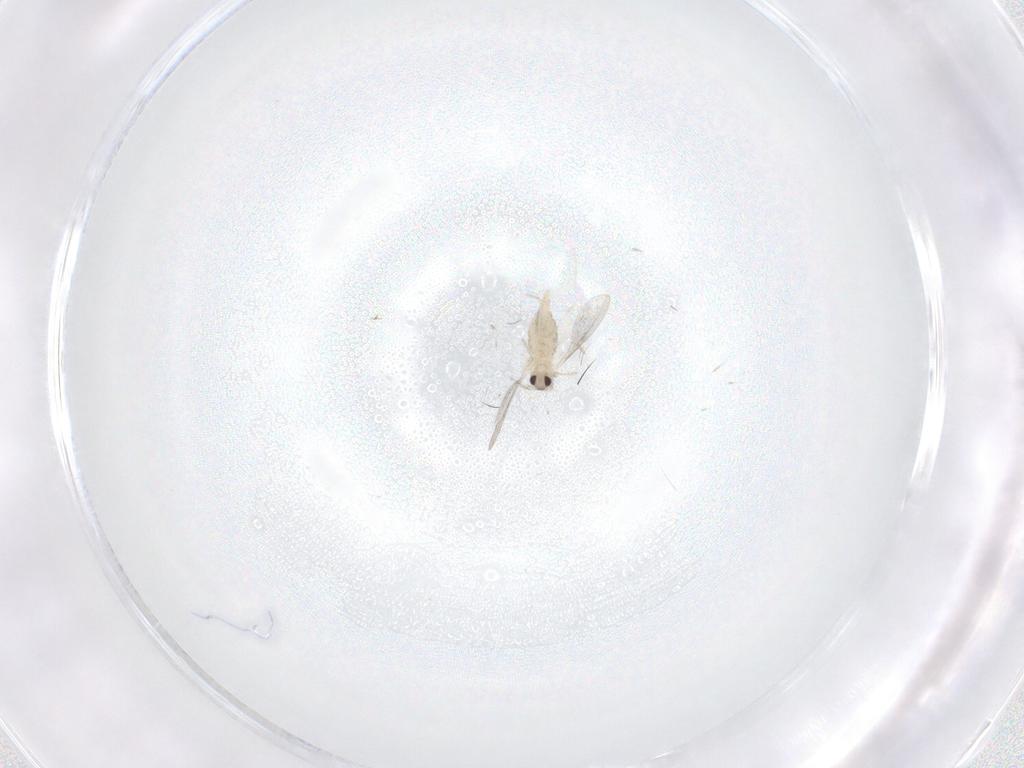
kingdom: Animalia
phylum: Arthropoda
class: Insecta
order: Diptera
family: Cecidomyiidae
